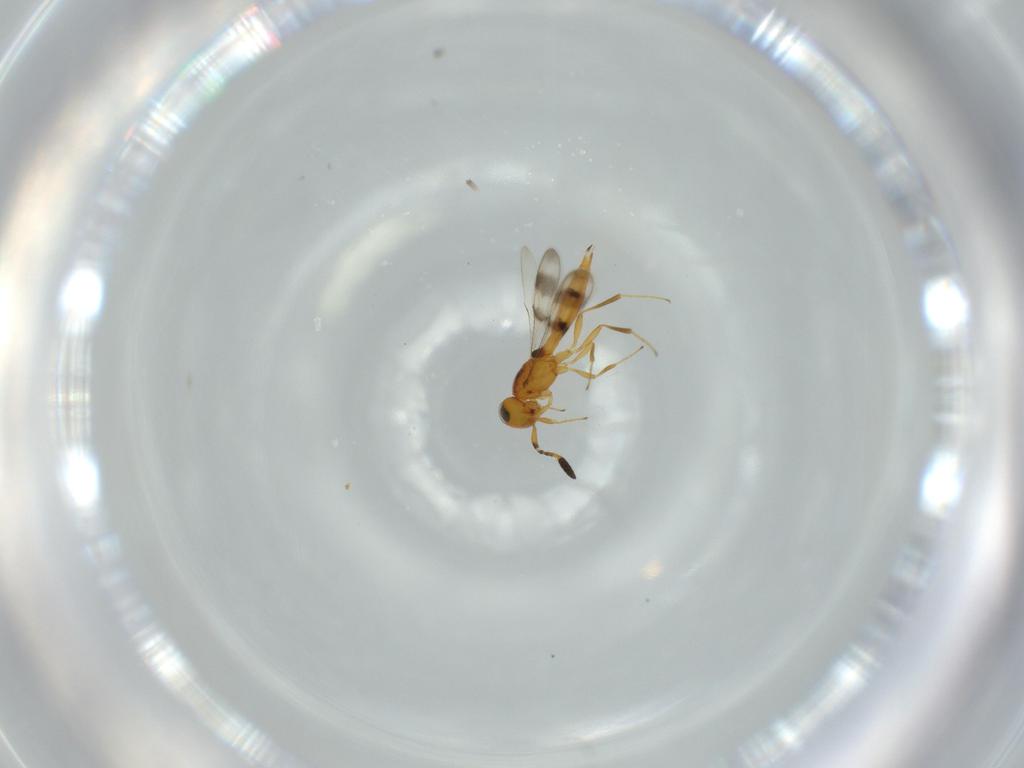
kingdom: Animalia
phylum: Arthropoda
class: Insecta
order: Hymenoptera
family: Scelionidae
